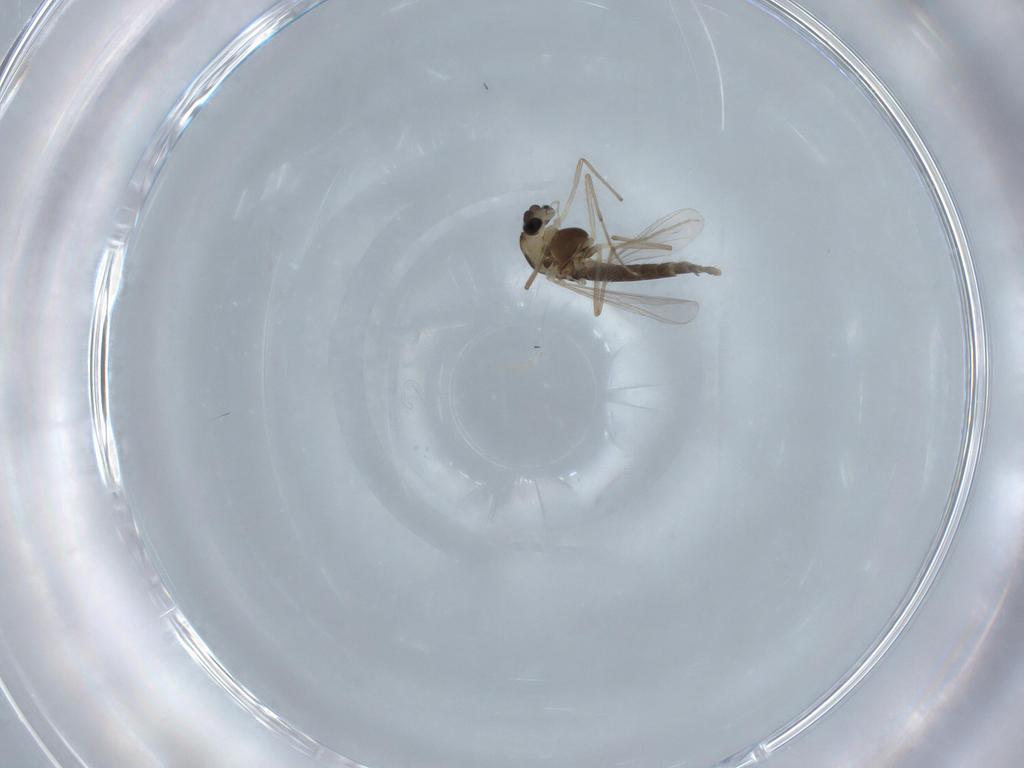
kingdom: Animalia
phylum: Arthropoda
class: Insecta
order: Diptera
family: Chironomidae
